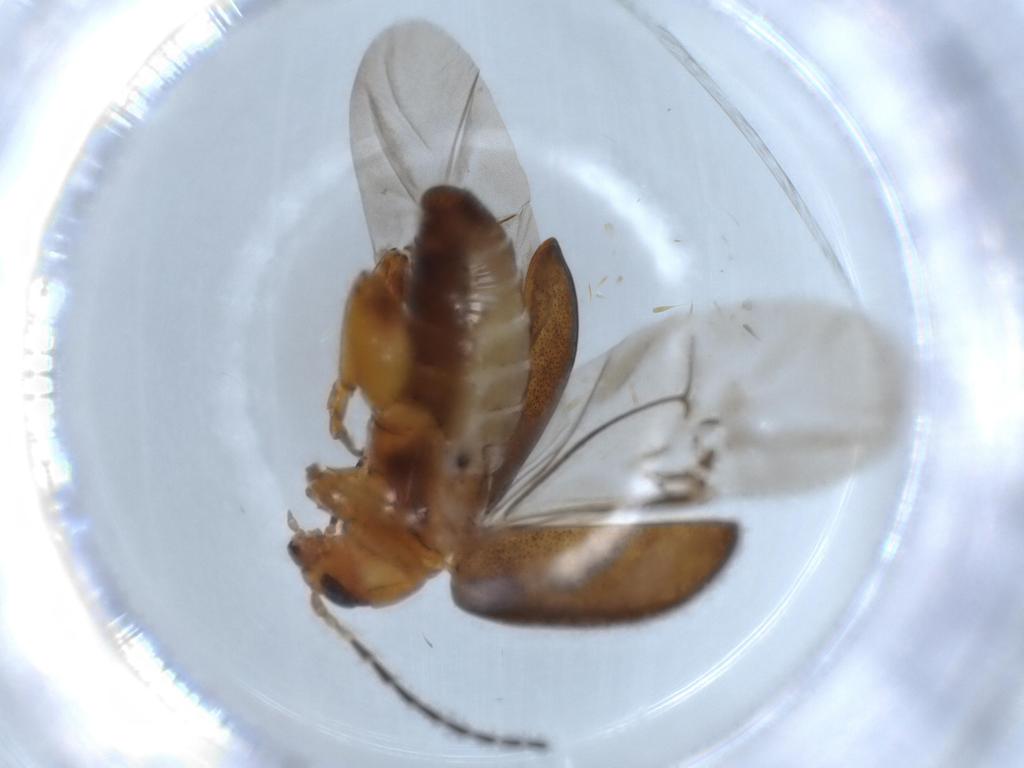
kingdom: Animalia
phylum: Arthropoda
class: Insecta
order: Coleoptera
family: Chrysomelidae
